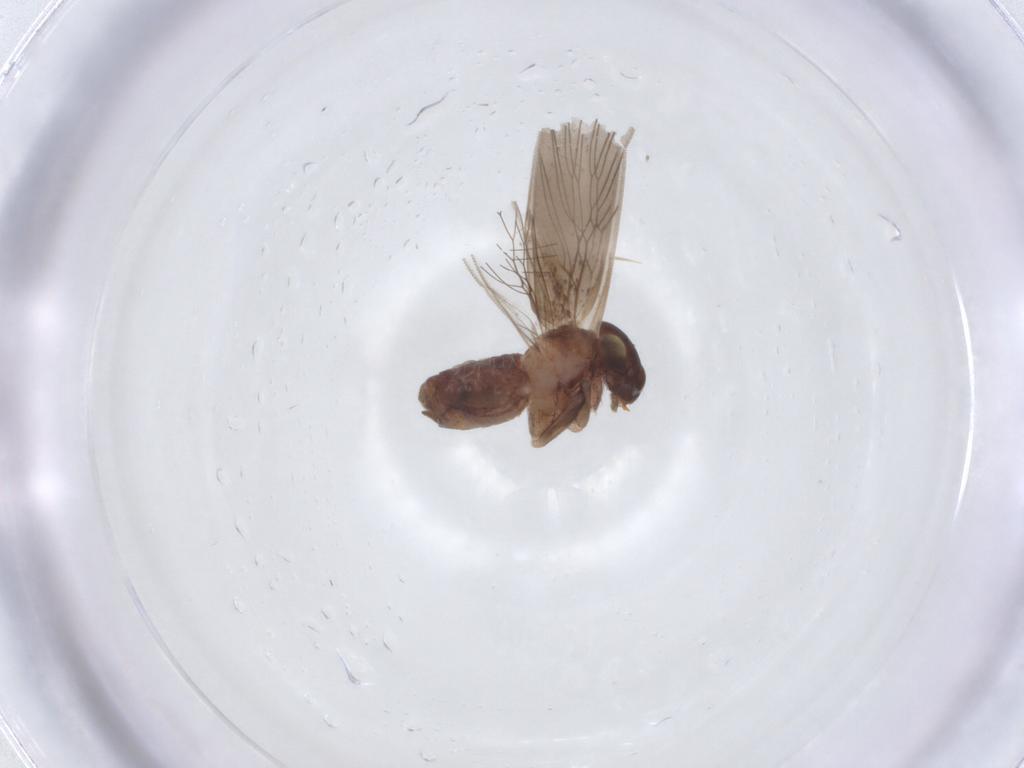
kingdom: Animalia
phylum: Arthropoda
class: Insecta
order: Psocodea
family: Lepidopsocidae
